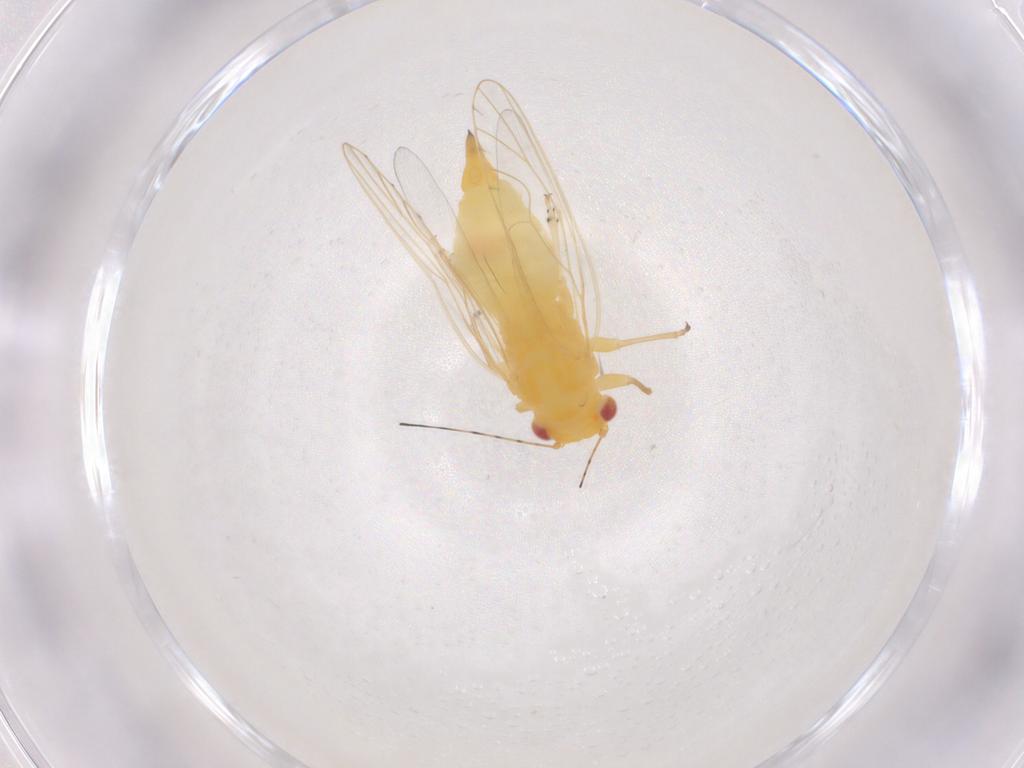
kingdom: Animalia
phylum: Arthropoda
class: Insecta
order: Hemiptera
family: Psyllidae
